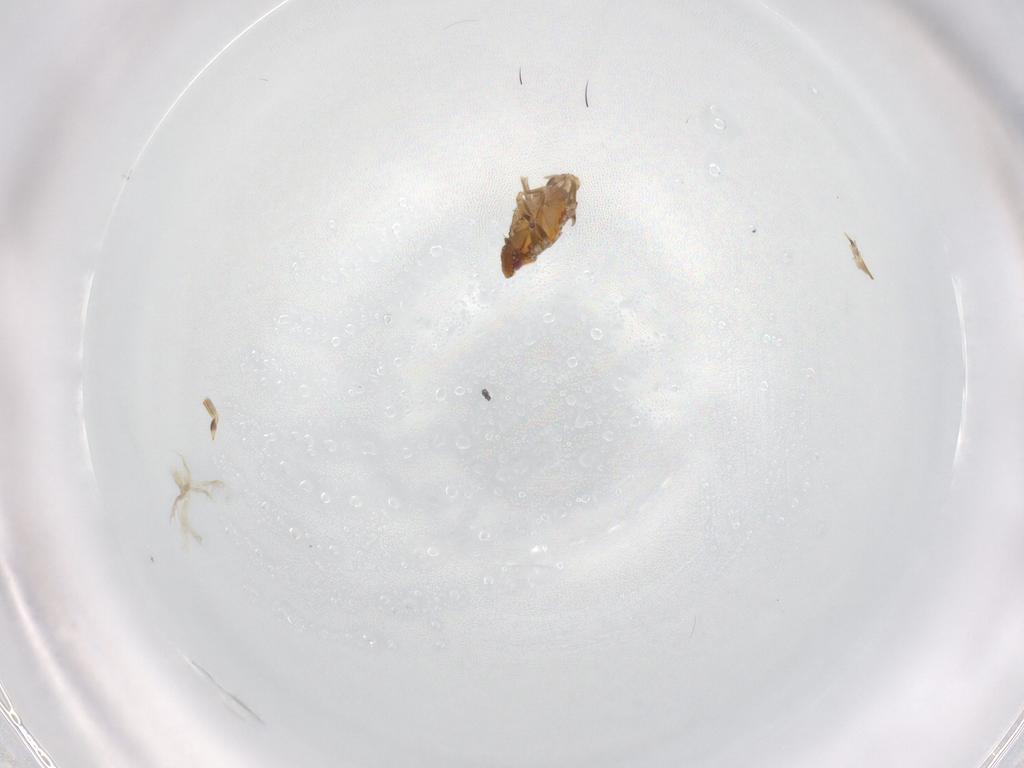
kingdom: Animalia
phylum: Arthropoda
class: Insecta
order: Hemiptera
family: Flatidae
